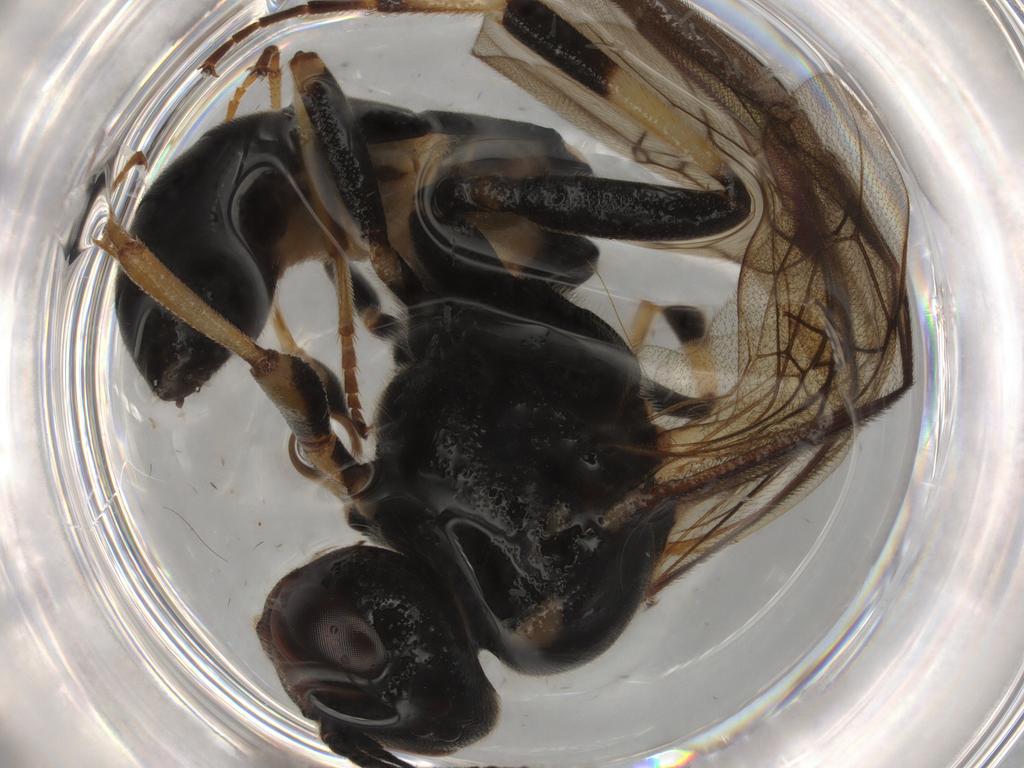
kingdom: Animalia
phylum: Arthropoda
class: Insecta
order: Hymenoptera
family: Ichneumonidae
